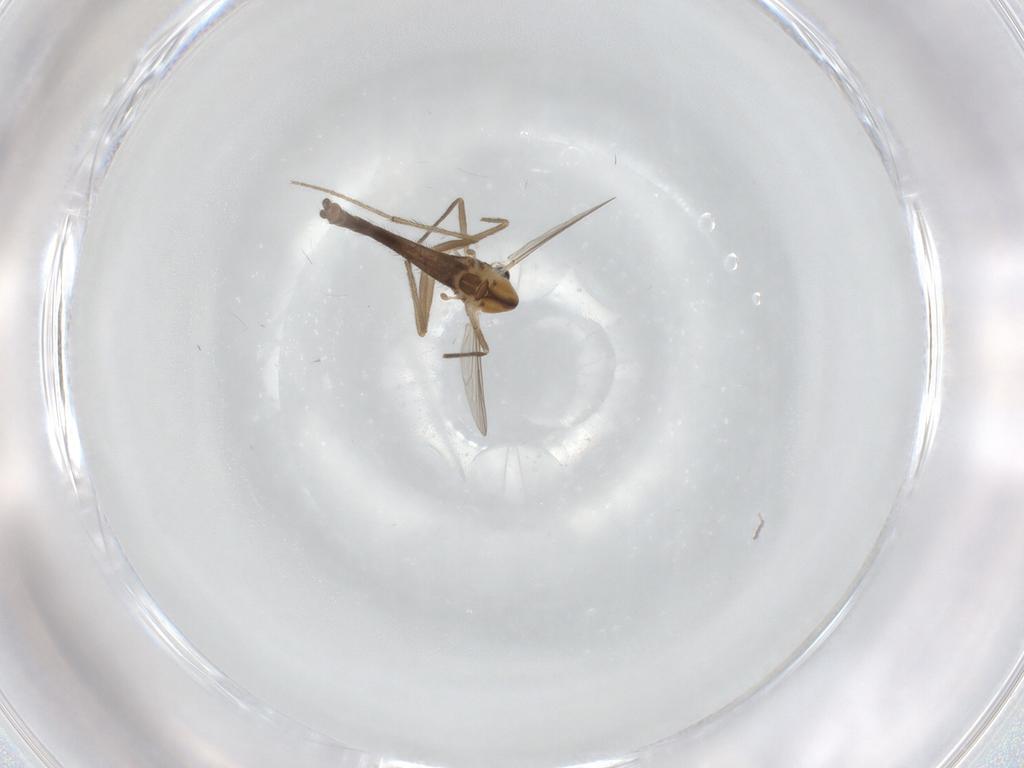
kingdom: Animalia
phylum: Arthropoda
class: Insecta
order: Diptera
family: Chironomidae
